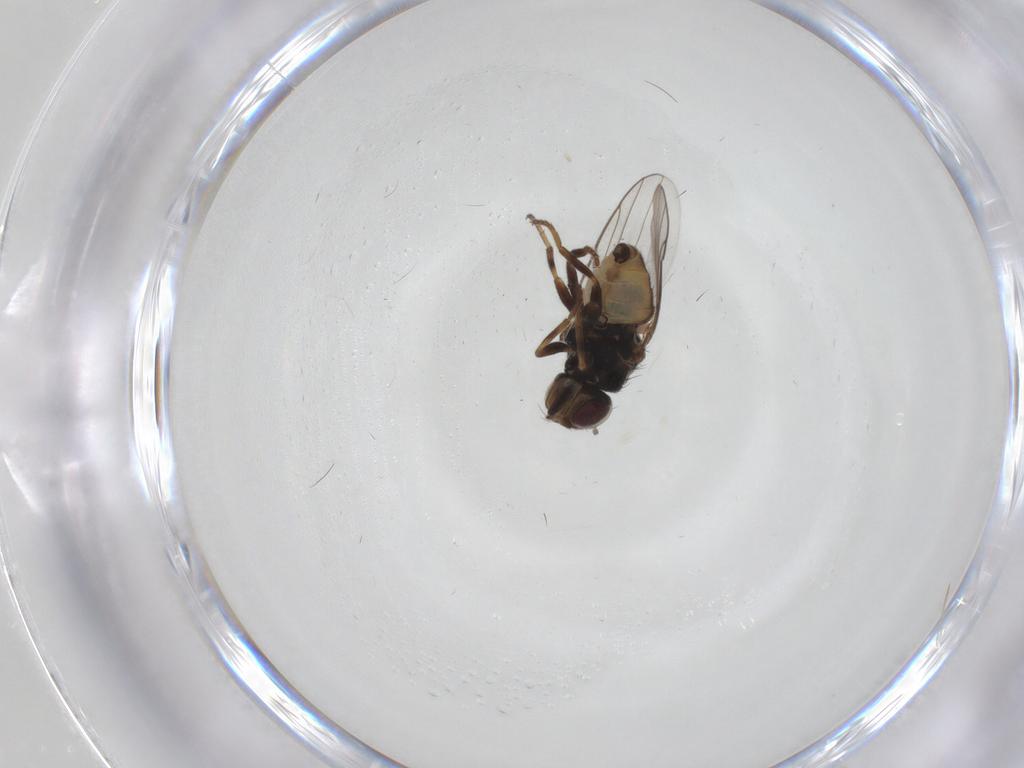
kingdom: Animalia
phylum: Arthropoda
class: Insecta
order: Diptera
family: Chloropidae
